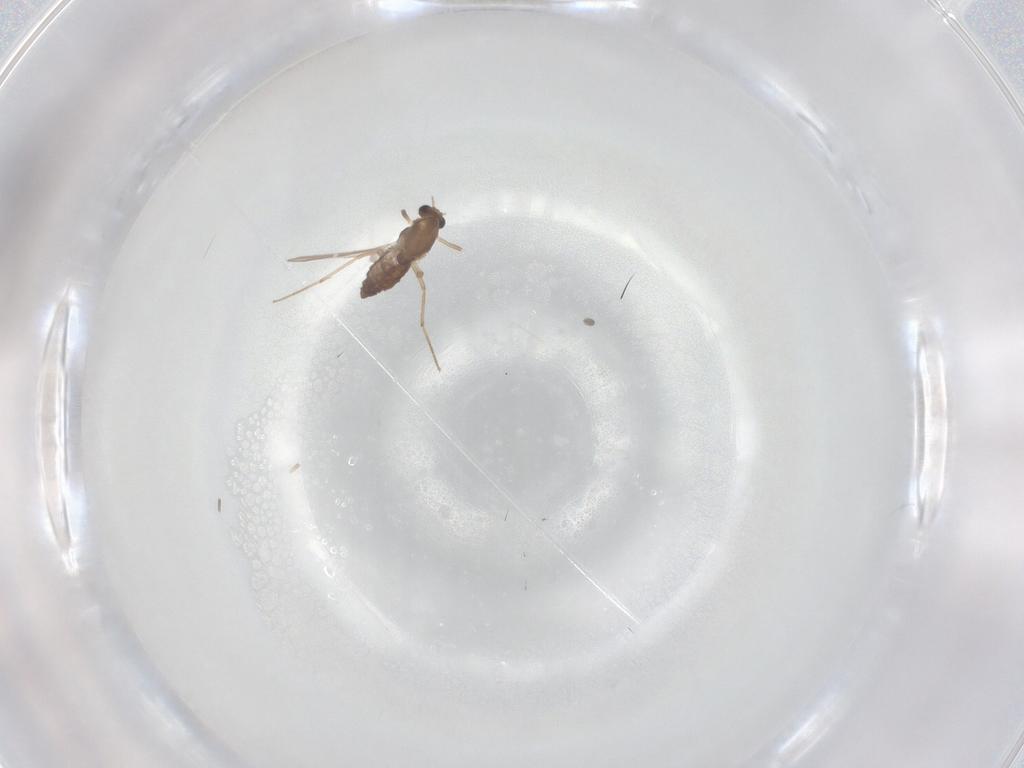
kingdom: Animalia
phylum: Arthropoda
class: Insecta
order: Diptera
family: Chironomidae
